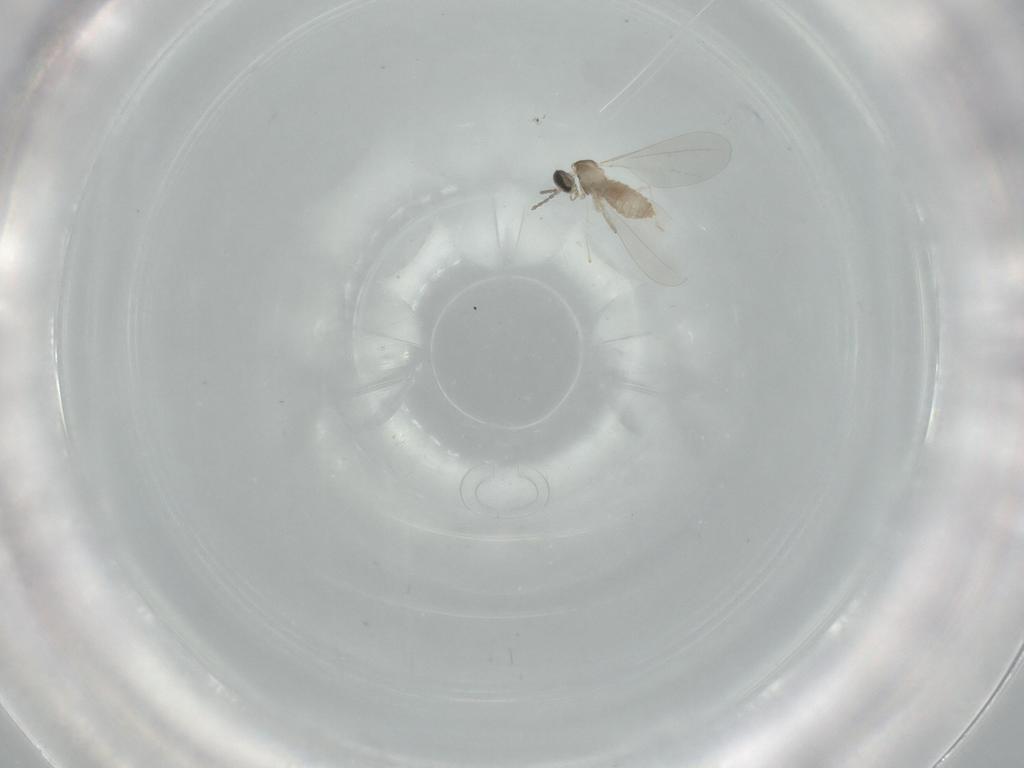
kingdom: Animalia
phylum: Arthropoda
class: Insecta
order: Diptera
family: Cecidomyiidae
